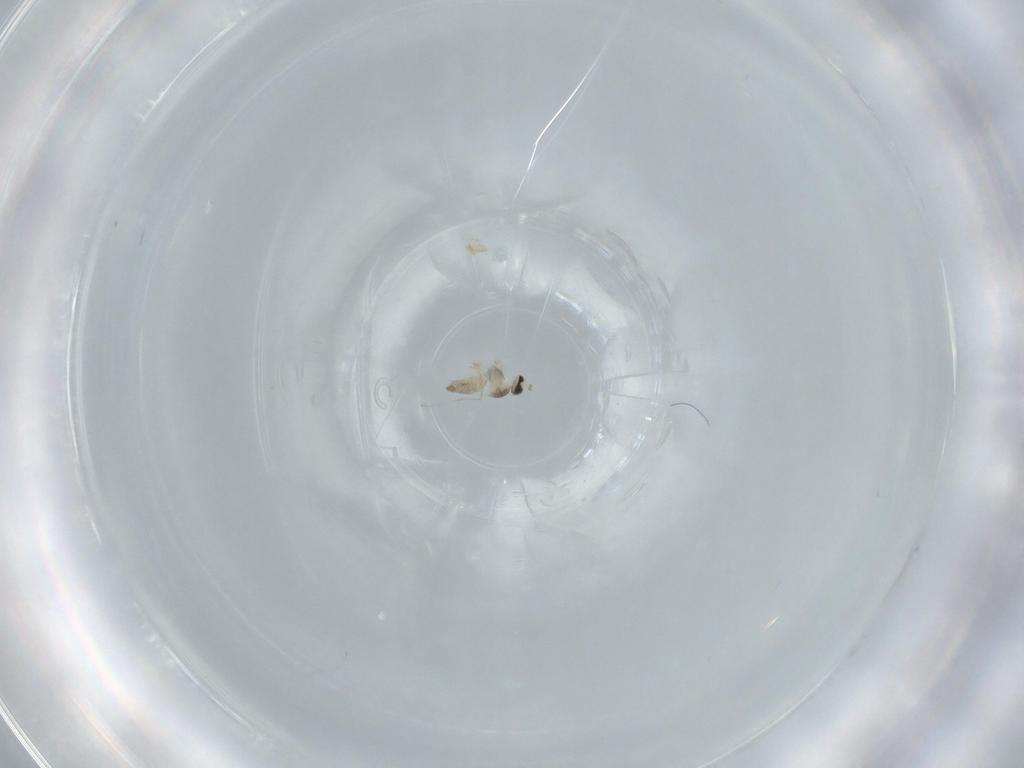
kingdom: Animalia
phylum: Arthropoda
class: Insecta
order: Diptera
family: Cecidomyiidae
